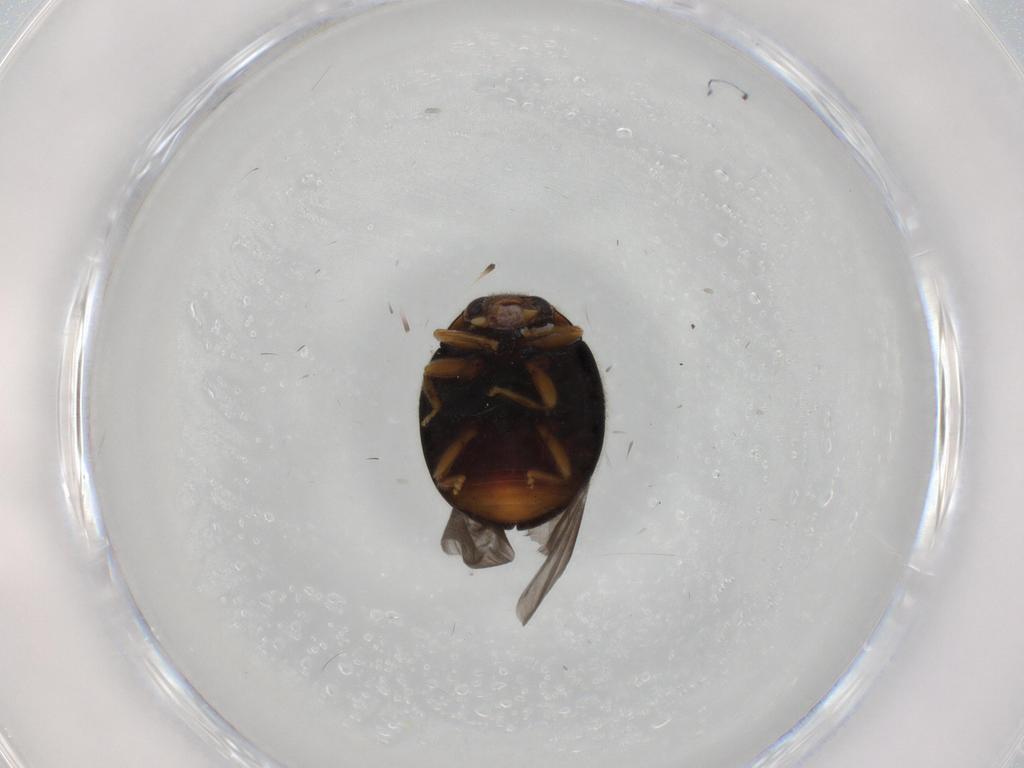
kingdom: Animalia
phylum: Arthropoda
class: Insecta
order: Coleoptera
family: Coccinellidae
